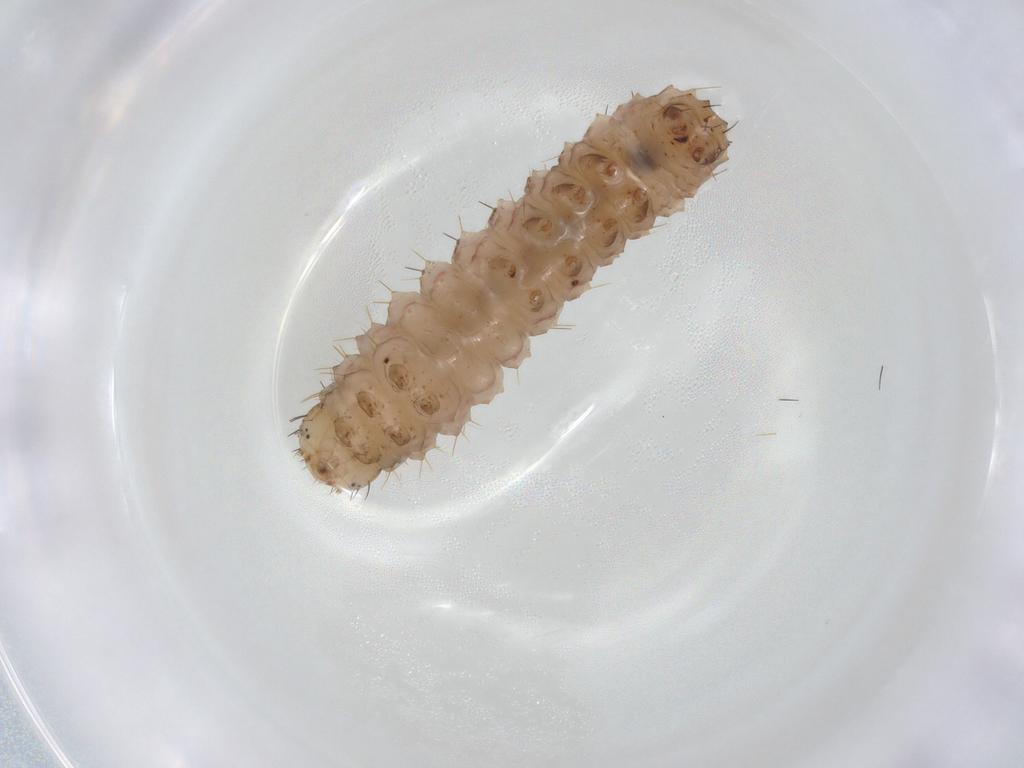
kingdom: Animalia
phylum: Arthropoda
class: Insecta
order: Lepidoptera
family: Erebidae
